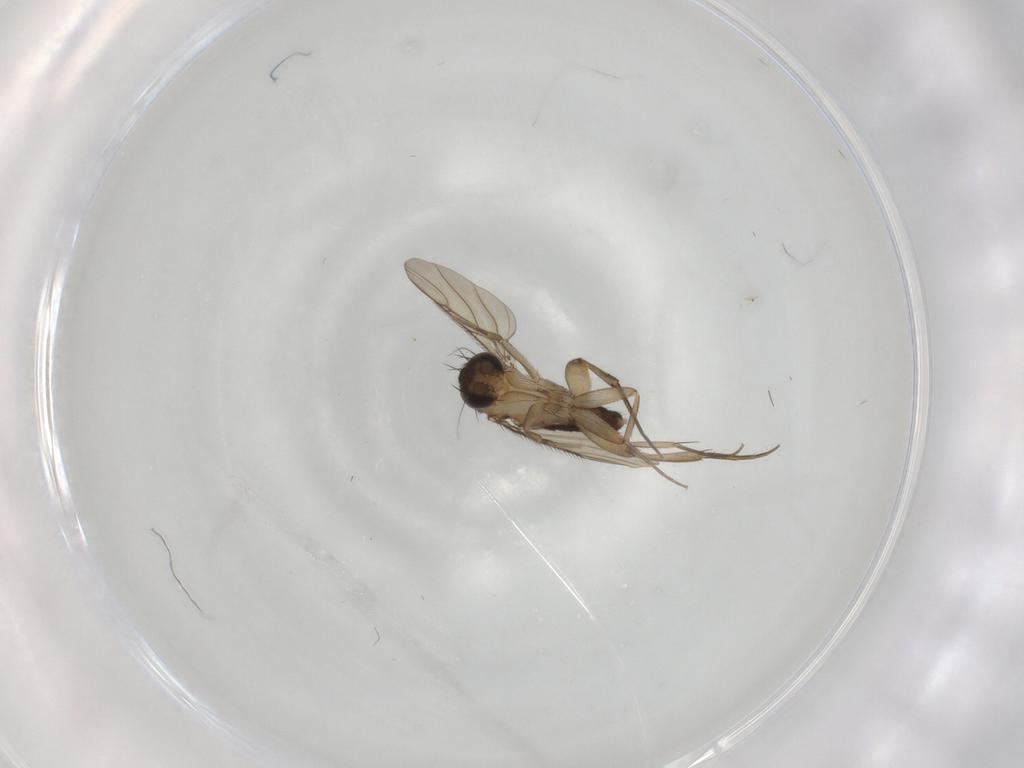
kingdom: Animalia
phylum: Arthropoda
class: Insecta
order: Diptera
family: Phoridae
